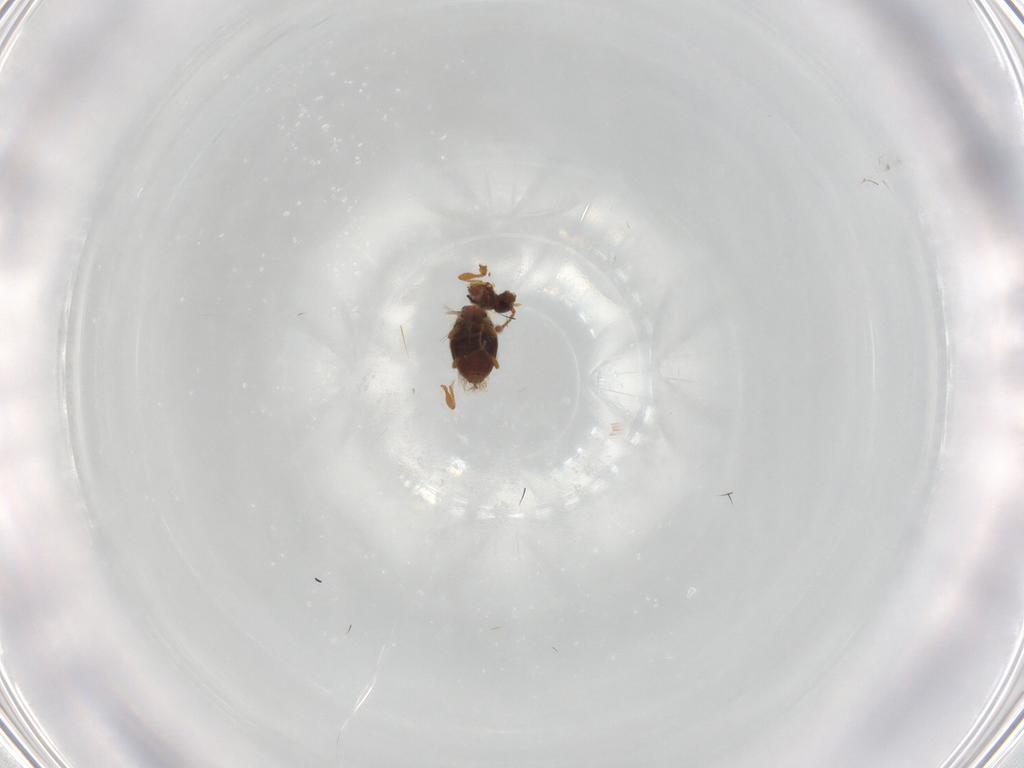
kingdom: Animalia
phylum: Arthropoda
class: Insecta
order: Coleoptera
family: Staphylinidae
